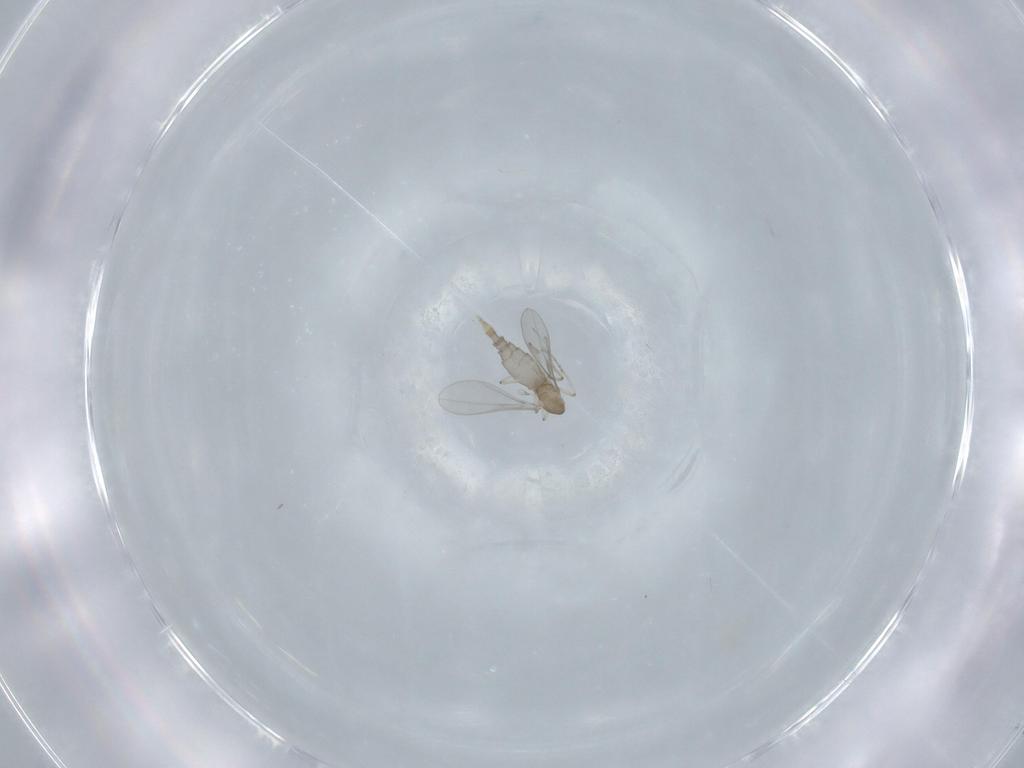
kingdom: Animalia
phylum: Arthropoda
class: Insecta
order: Diptera
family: Cecidomyiidae
